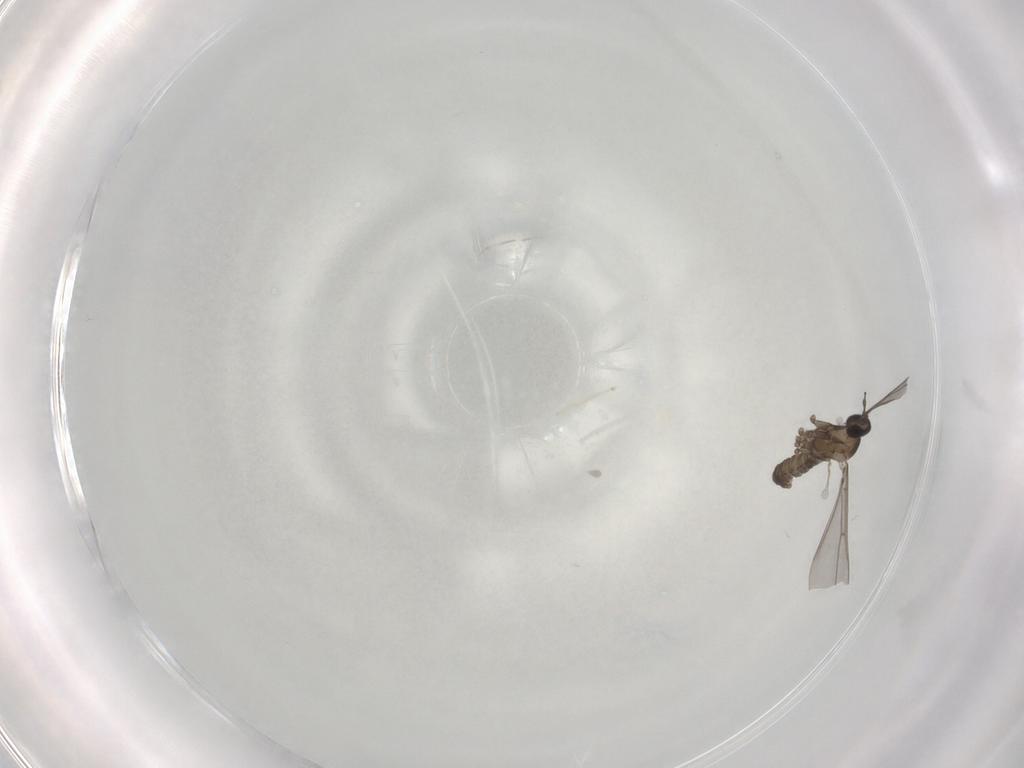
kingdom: Animalia
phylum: Arthropoda
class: Insecta
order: Diptera
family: Cecidomyiidae
